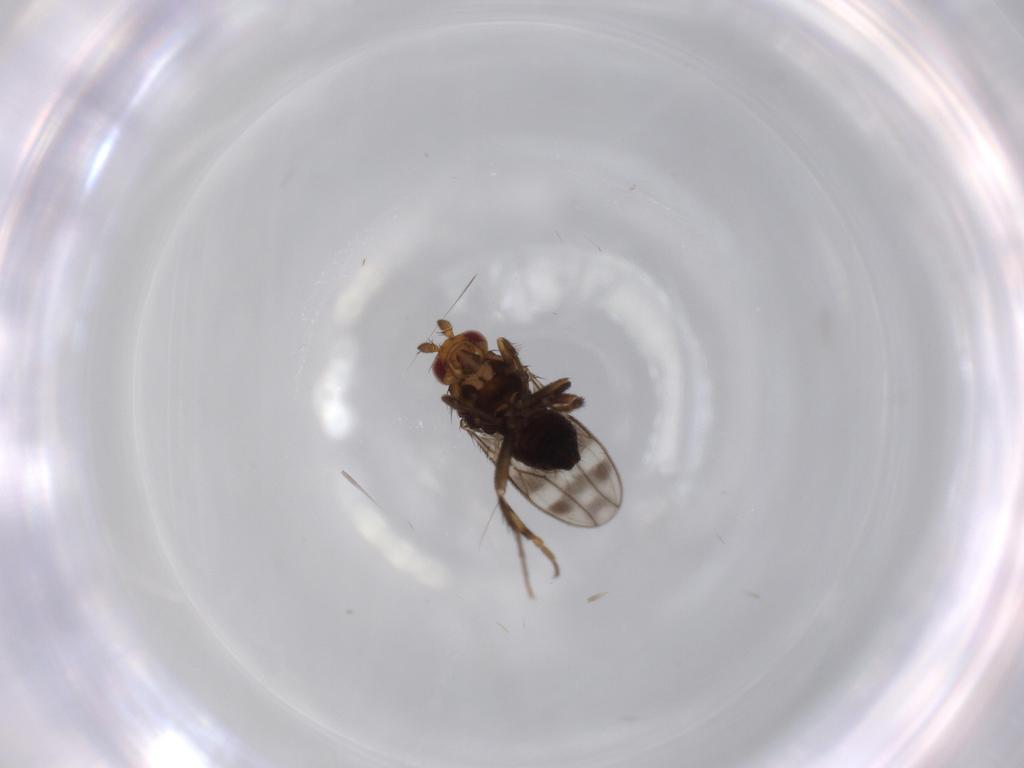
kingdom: Animalia
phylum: Arthropoda
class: Insecta
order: Diptera
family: Sphaeroceridae
